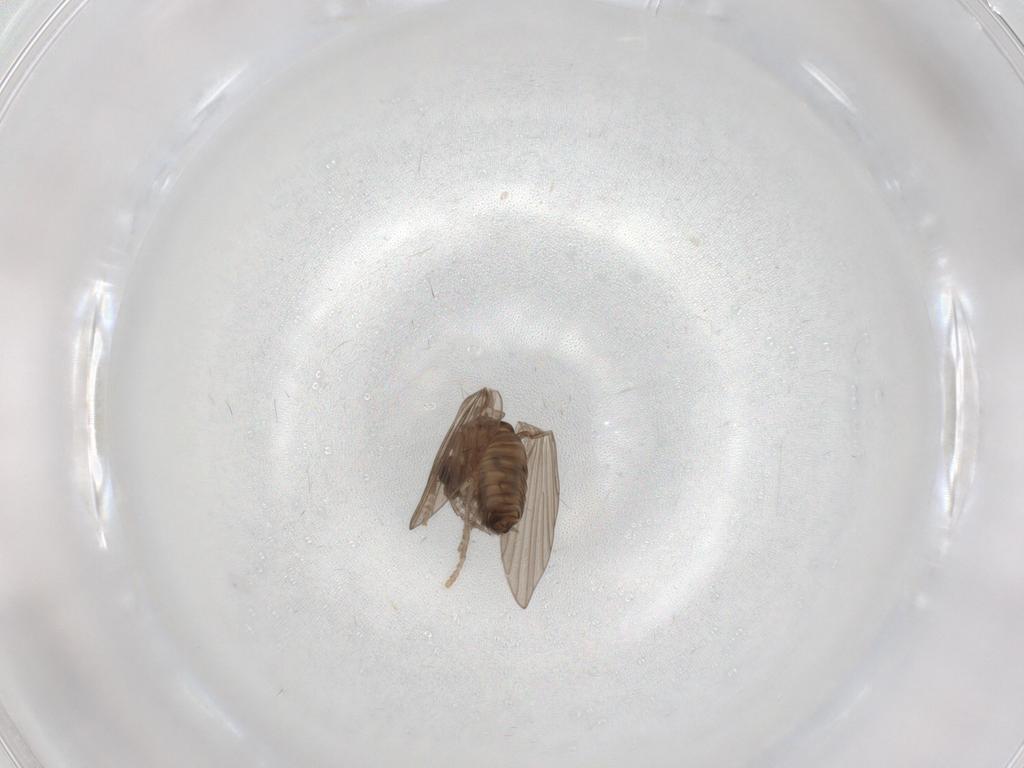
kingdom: Animalia
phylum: Arthropoda
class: Insecta
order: Diptera
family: Psychodidae
